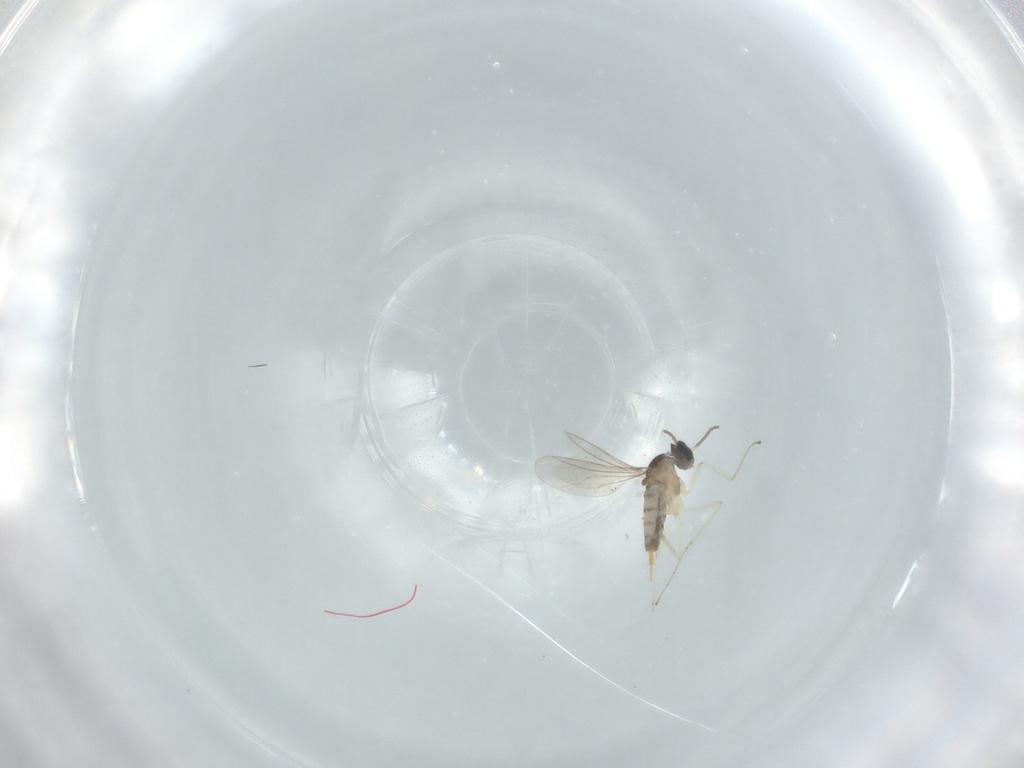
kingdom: Animalia
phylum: Arthropoda
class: Insecta
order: Diptera
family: Cecidomyiidae
